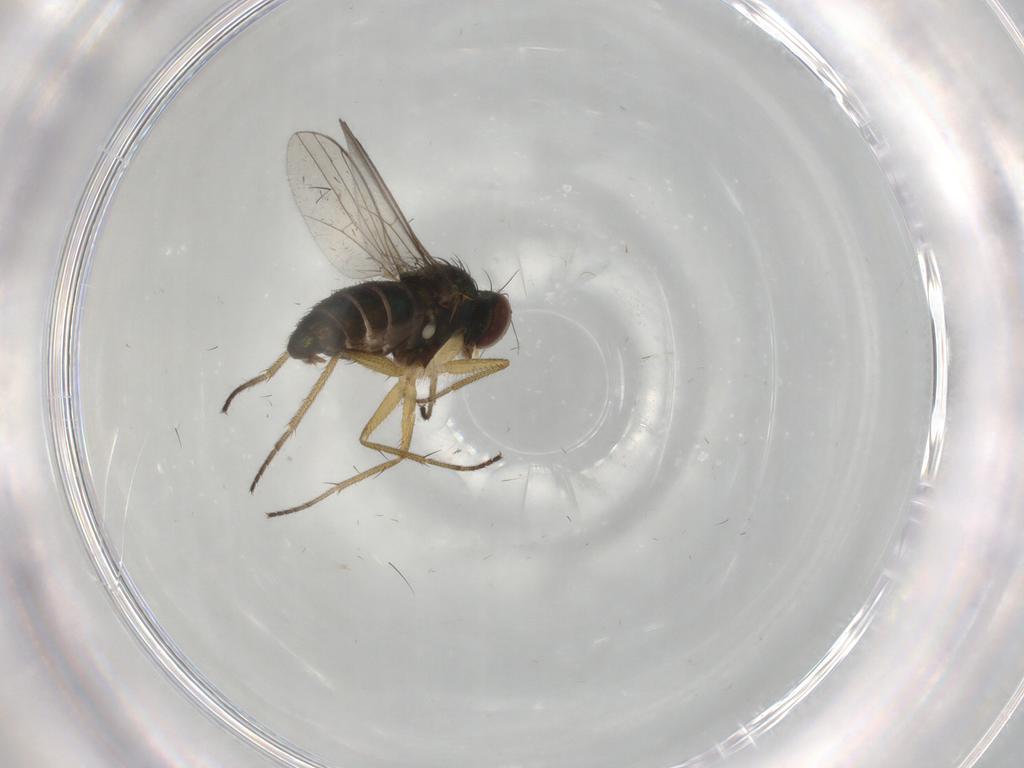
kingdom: Animalia
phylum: Arthropoda
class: Insecta
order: Diptera
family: Dolichopodidae
